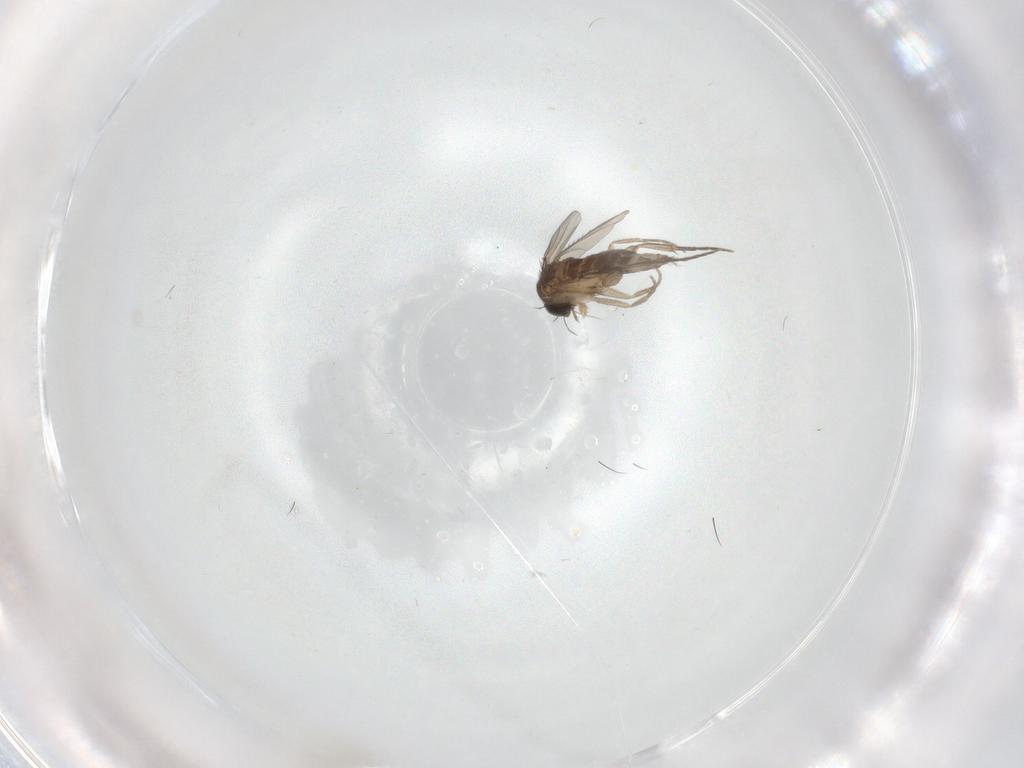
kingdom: Animalia
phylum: Arthropoda
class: Insecta
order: Diptera
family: Phoridae
